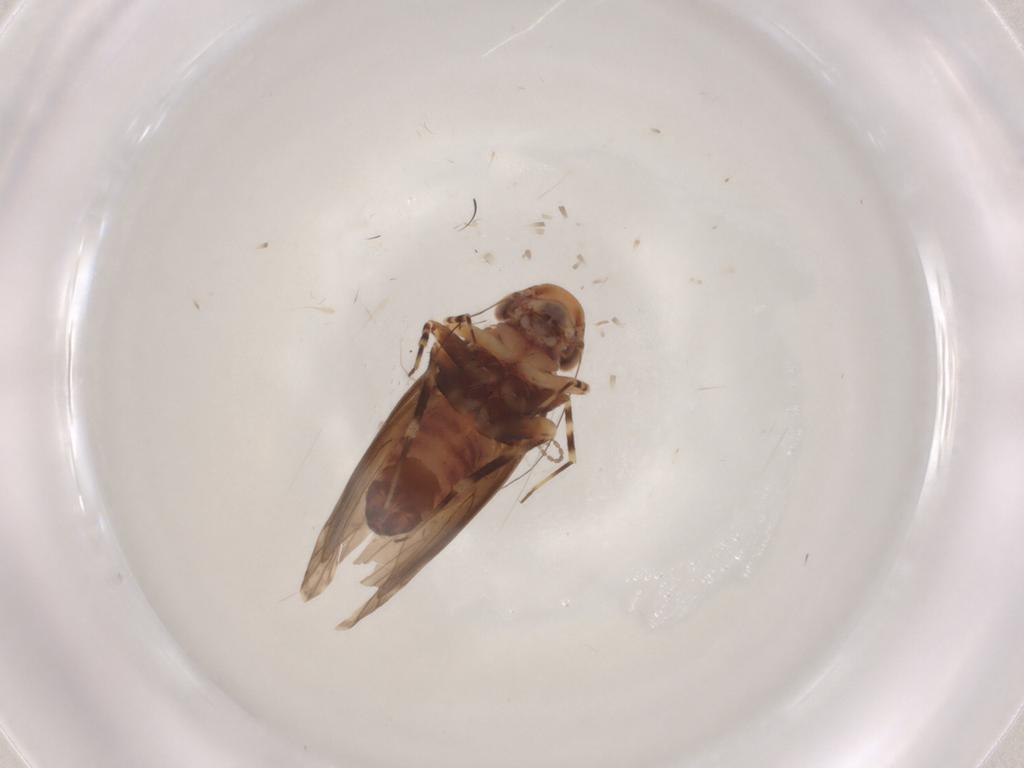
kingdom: Animalia
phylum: Arthropoda
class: Insecta
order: Psocodea
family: Amphientomidae
